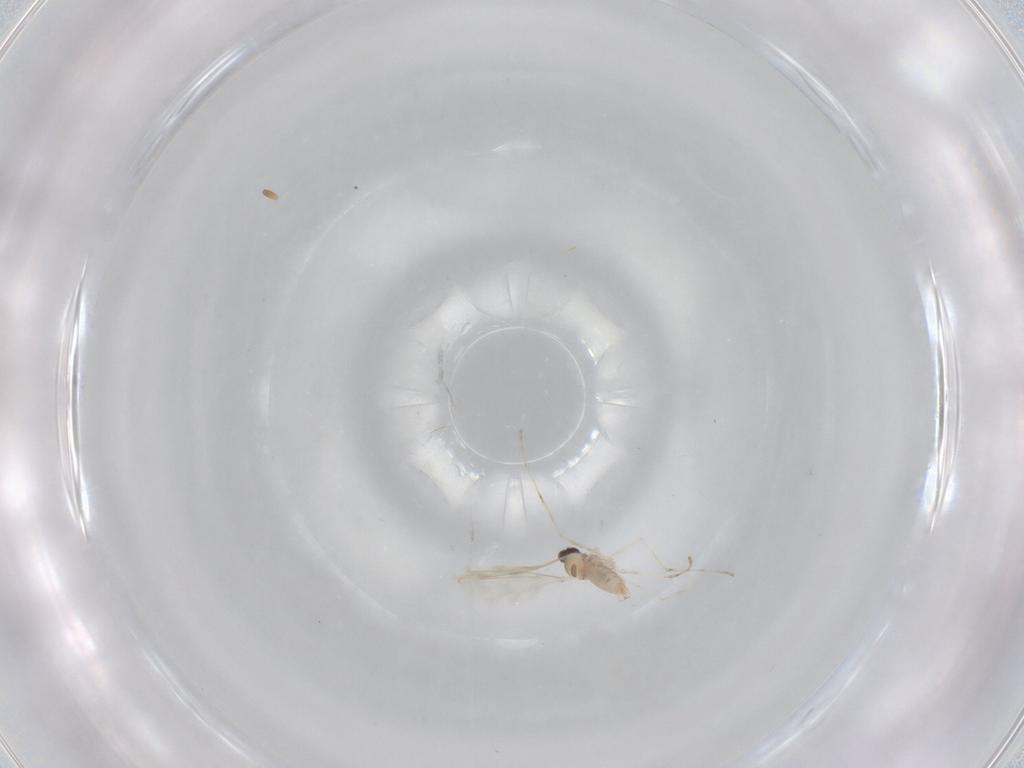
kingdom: Animalia
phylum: Arthropoda
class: Insecta
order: Diptera
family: Cecidomyiidae
